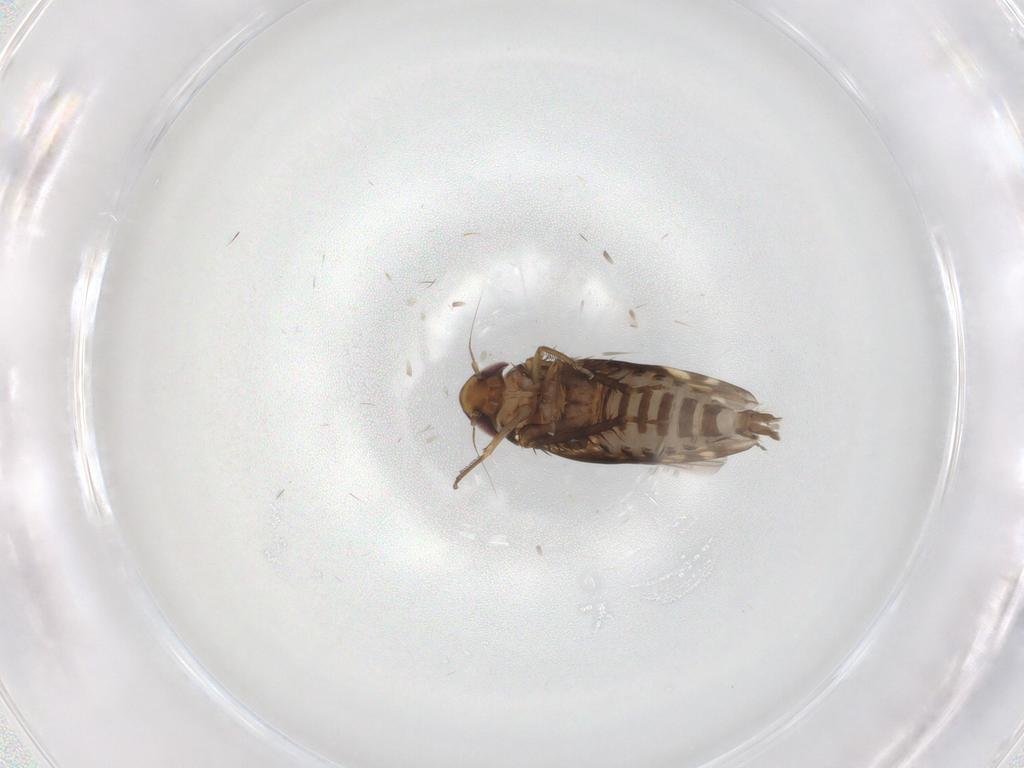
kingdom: Animalia
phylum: Arthropoda
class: Insecta
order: Hemiptera
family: Cicadellidae
